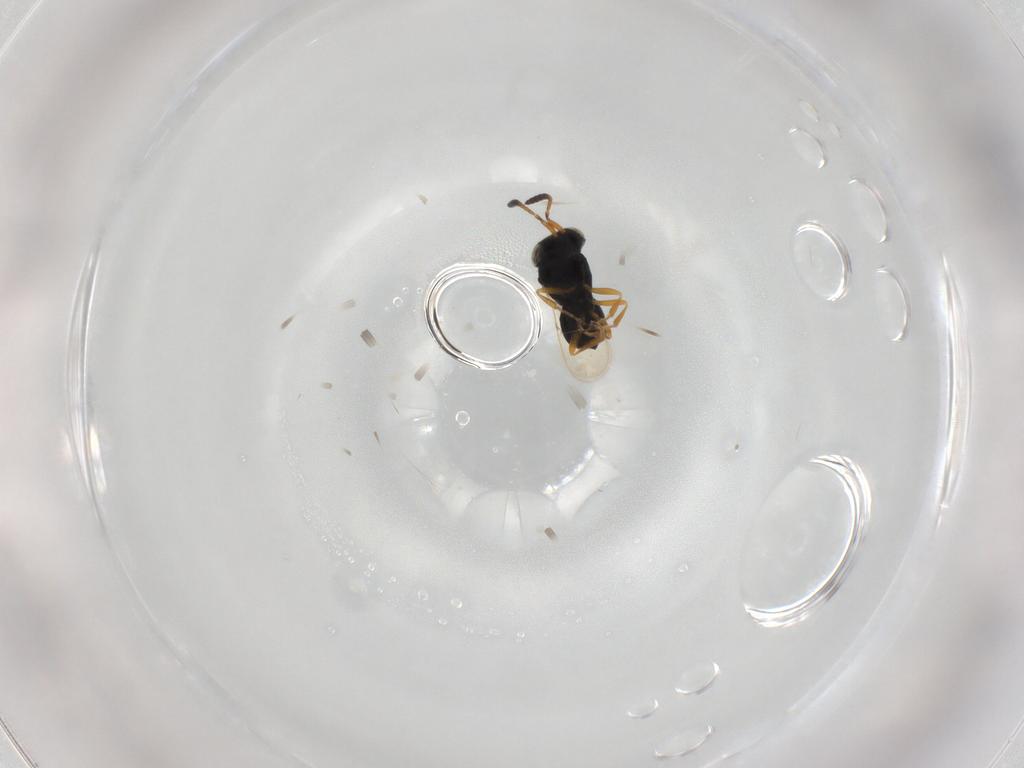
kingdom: Animalia
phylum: Arthropoda
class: Insecta
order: Hymenoptera
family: Scelionidae
